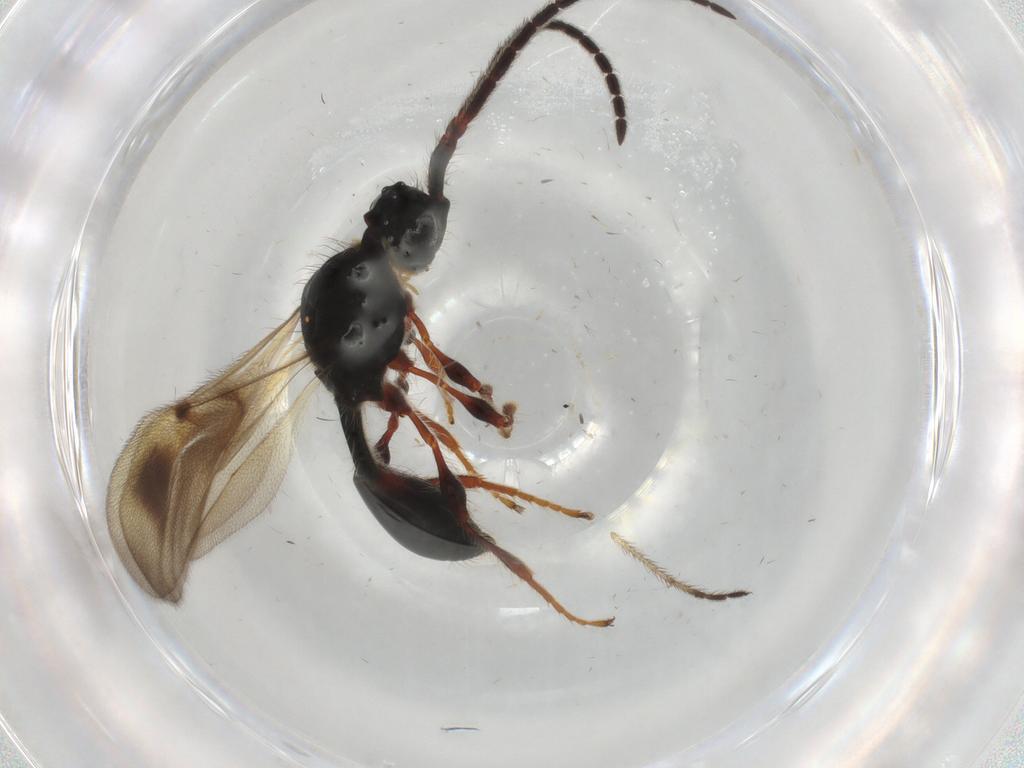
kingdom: Animalia
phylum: Arthropoda
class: Insecta
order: Hymenoptera
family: Diapriidae
